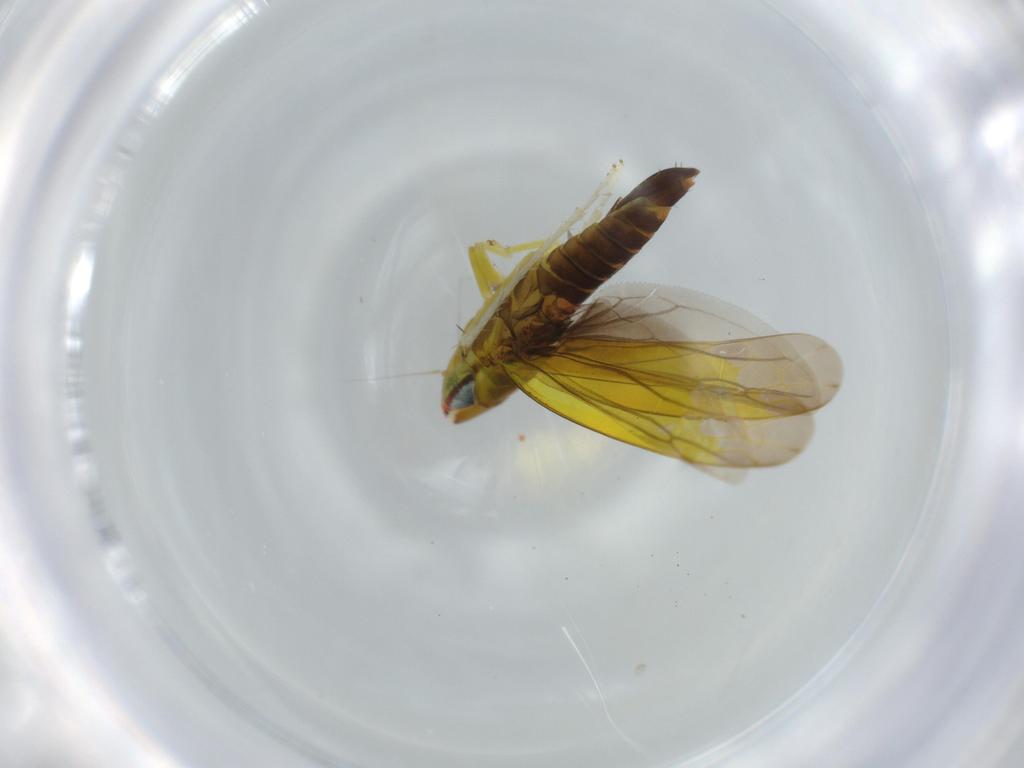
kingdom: Animalia
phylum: Arthropoda
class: Insecta
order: Hemiptera
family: Cicadellidae
